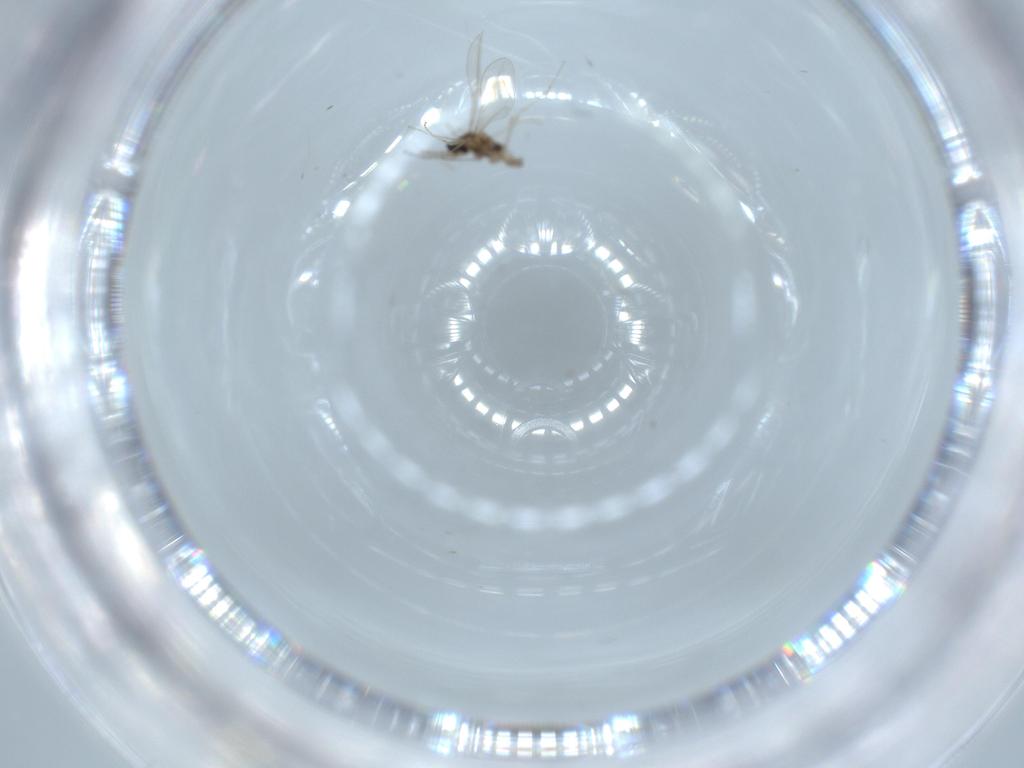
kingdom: Animalia
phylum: Arthropoda
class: Insecta
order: Diptera
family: Cecidomyiidae
